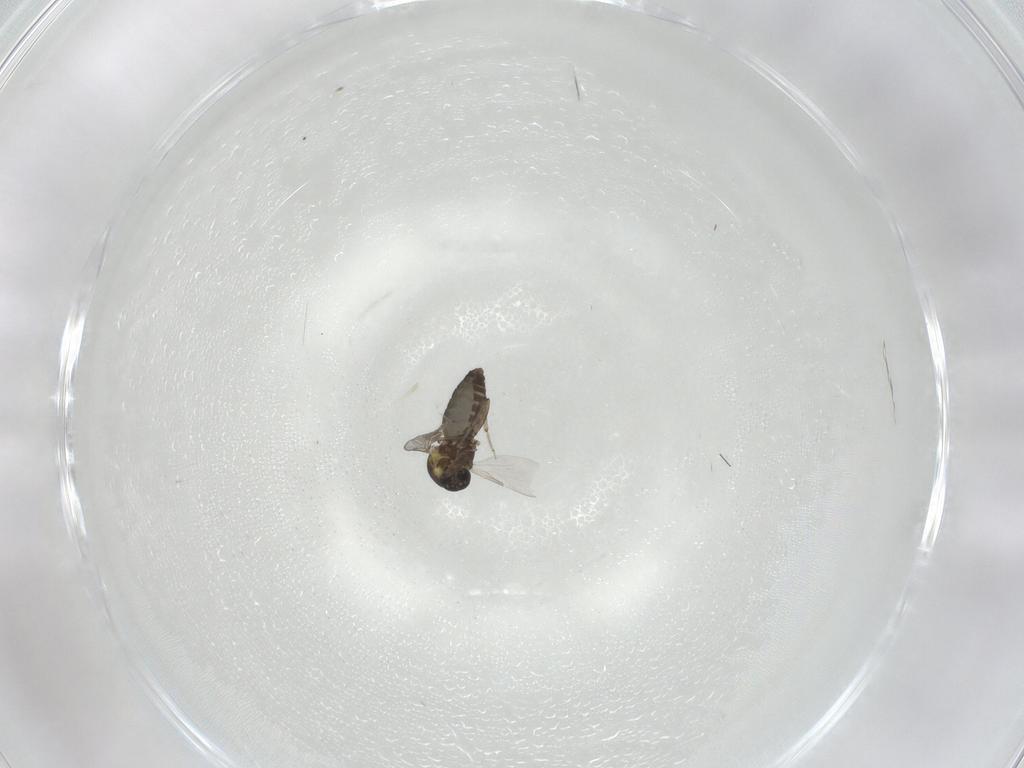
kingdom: Animalia
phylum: Arthropoda
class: Insecta
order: Diptera
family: Ceratopogonidae
